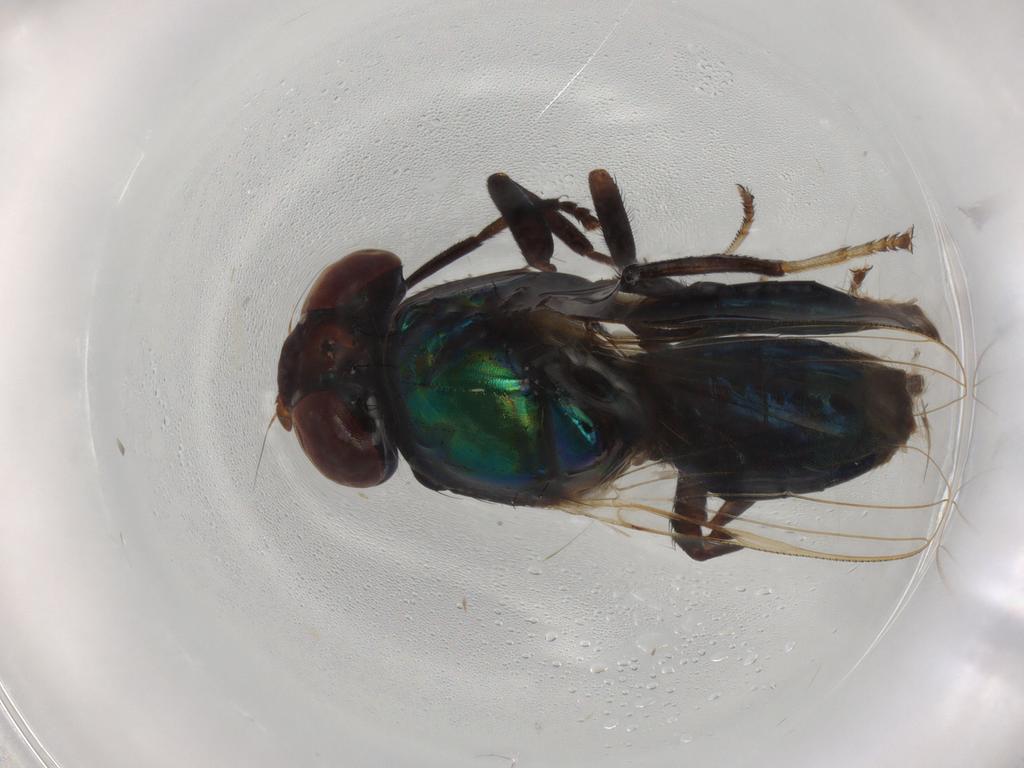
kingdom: Animalia
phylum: Arthropoda
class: Insecta
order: Diptera
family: Ulidiidae
